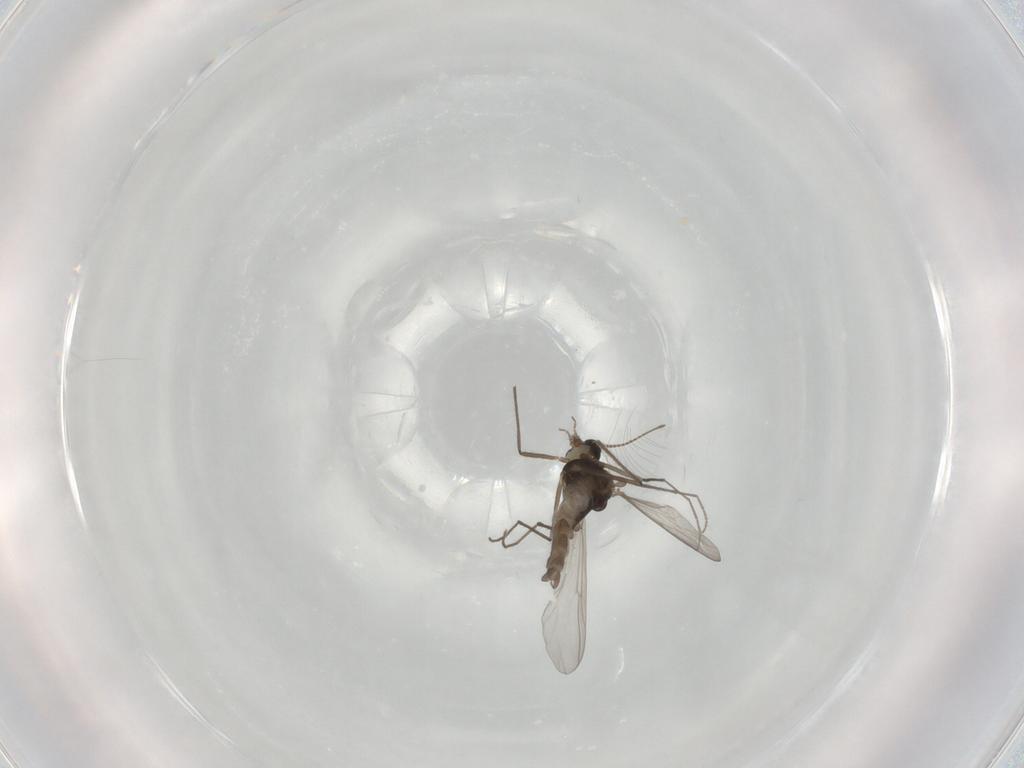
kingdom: Animalia
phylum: Arthropoda
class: Insecta
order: Diptera
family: Chironomidae
